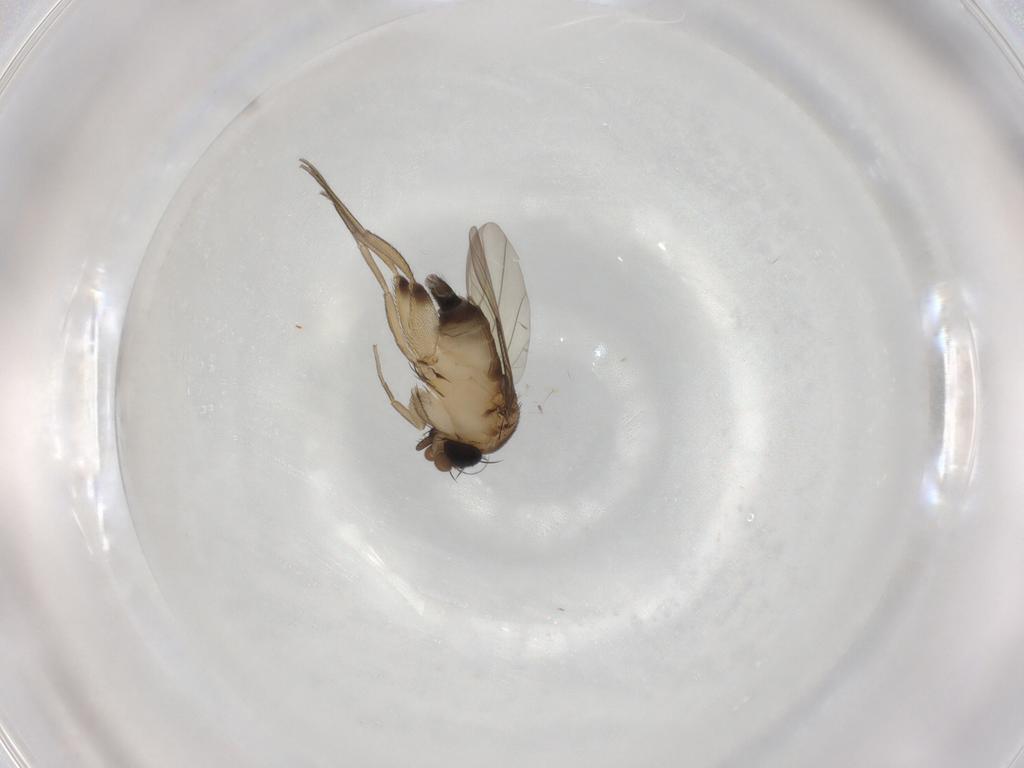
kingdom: Animalia
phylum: Arthropoda
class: Insecta
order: Diptera
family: Phoridae
